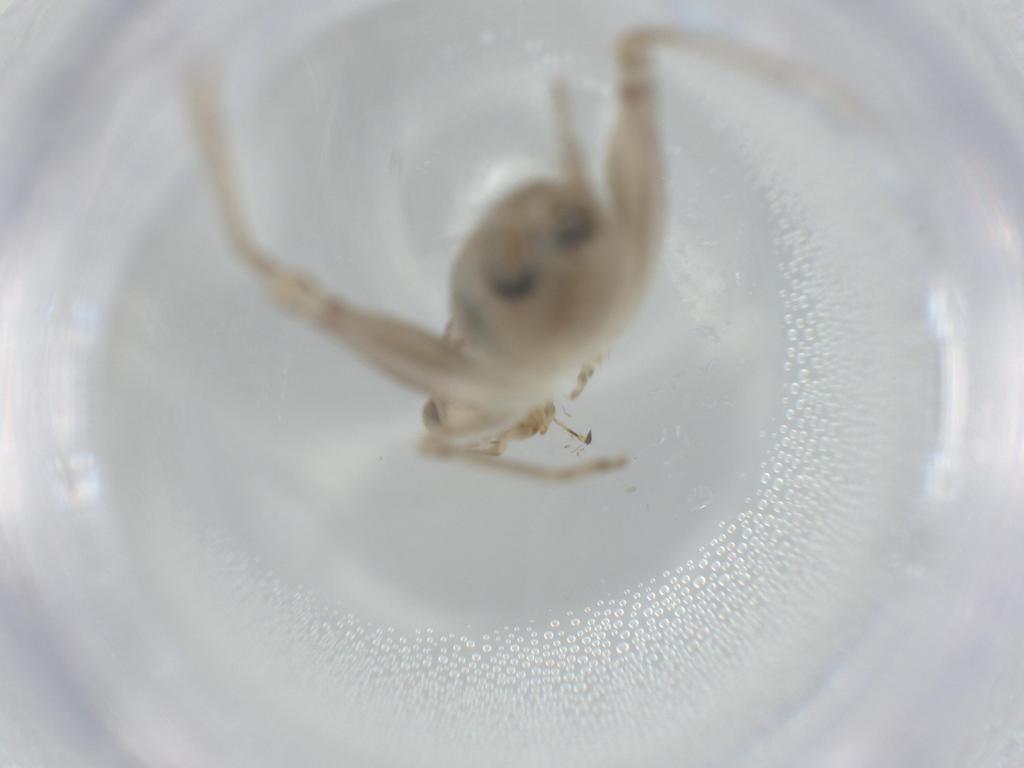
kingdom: Animalia
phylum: Arthropoda
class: Insecta
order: Orthoptera
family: Trigonidiidae
